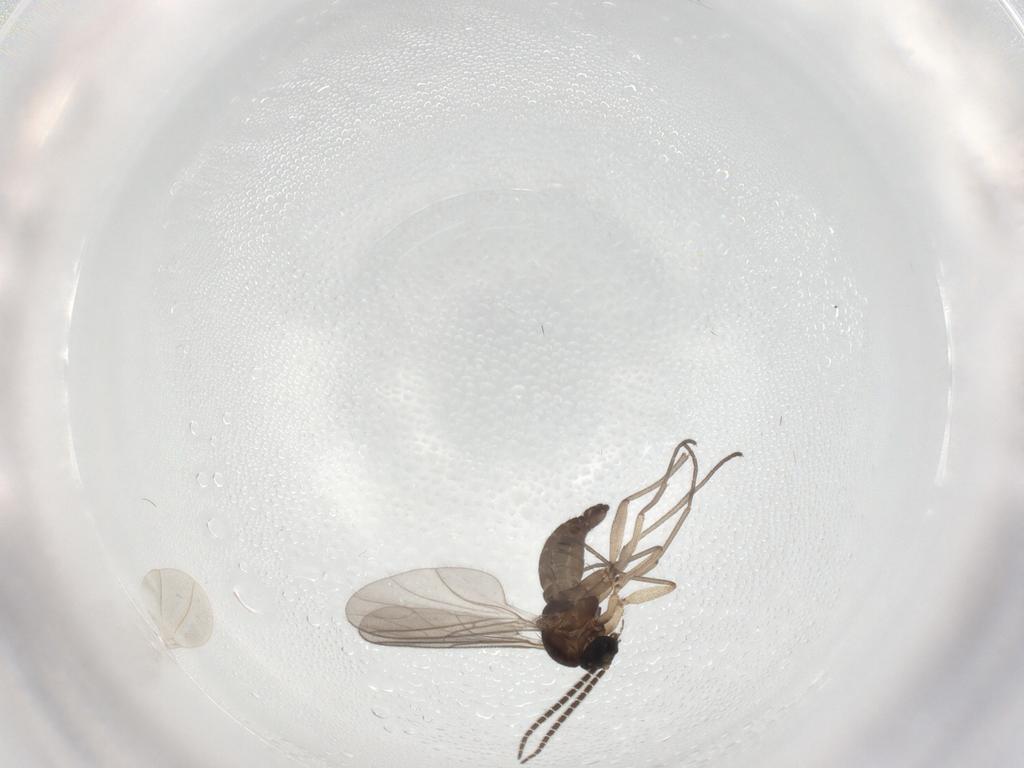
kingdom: Animalia
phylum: Arthropoda
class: Insecta
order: Diptera
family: Sciaridae
